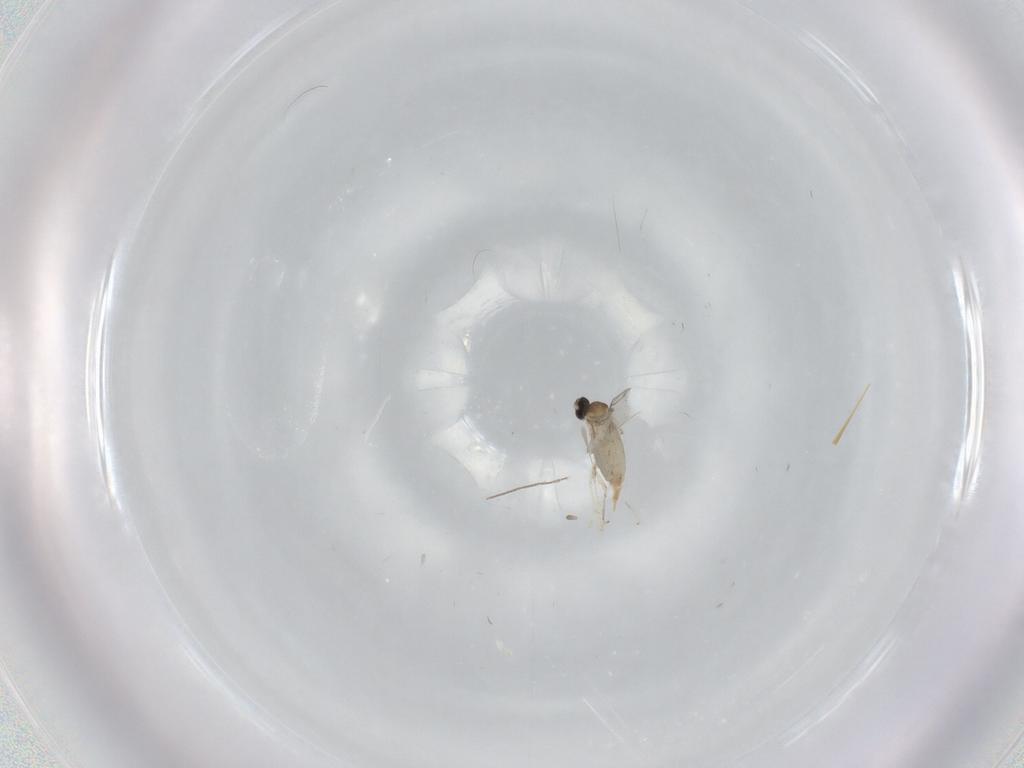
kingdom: Animalia
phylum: Arthropoda
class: Insecta
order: Diptera
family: Cecidomyiidae
